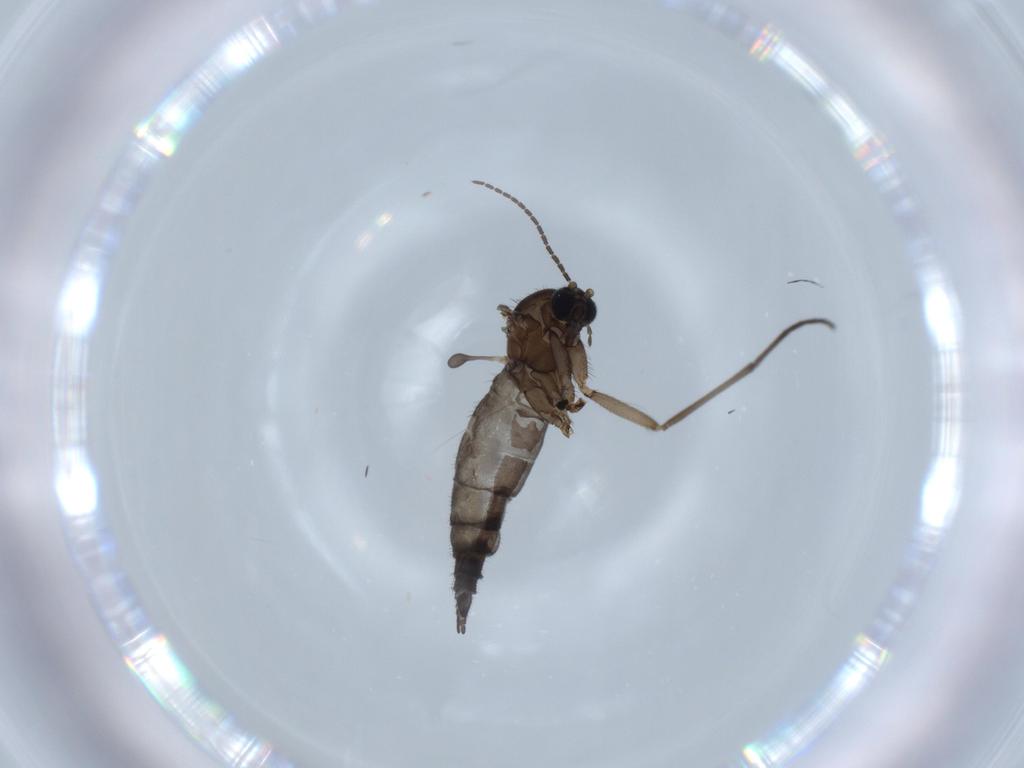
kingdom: Animalia
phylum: Arthropoda
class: Insecta
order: Diptera
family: Sciaridae
